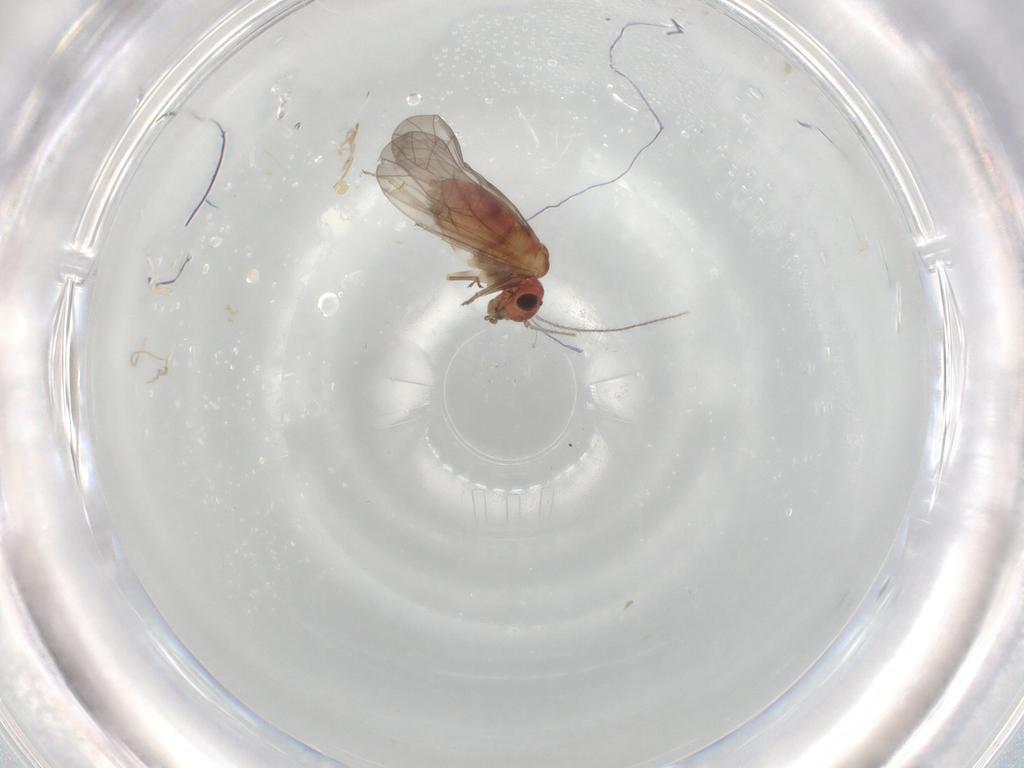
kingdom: Animalia
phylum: Arthropoda
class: Insecta
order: Psocodea
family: Lachesillidae
